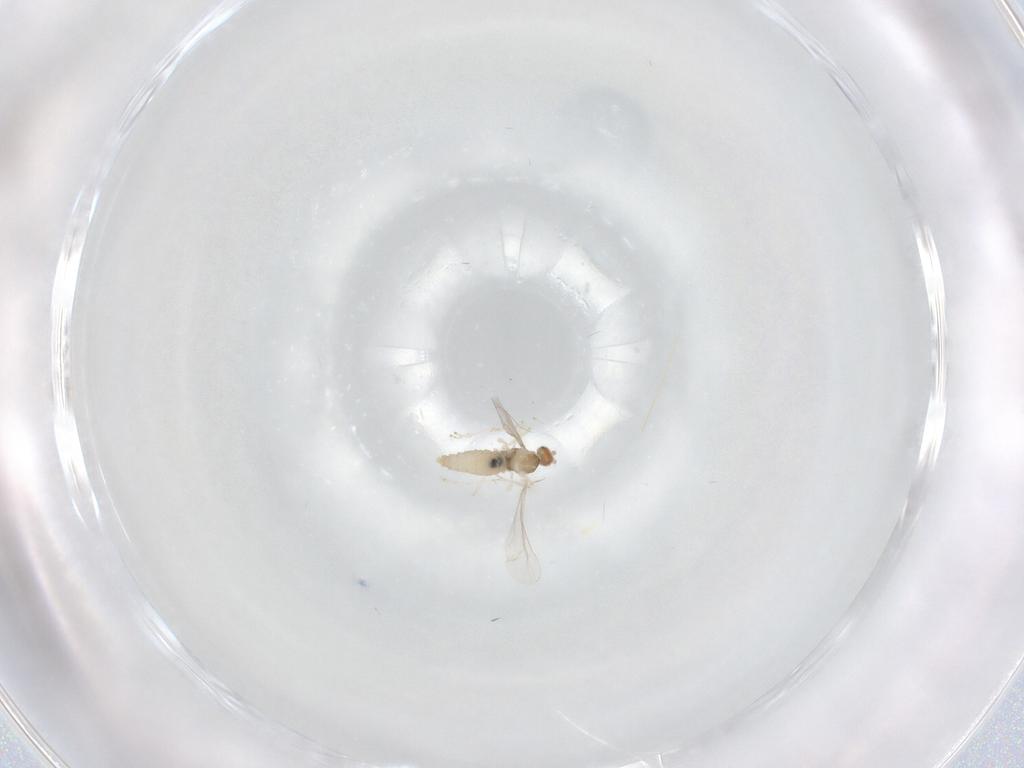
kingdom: Animalia
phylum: Arthropoda
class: Insecta
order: Diptera
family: Cecidomyiidae
